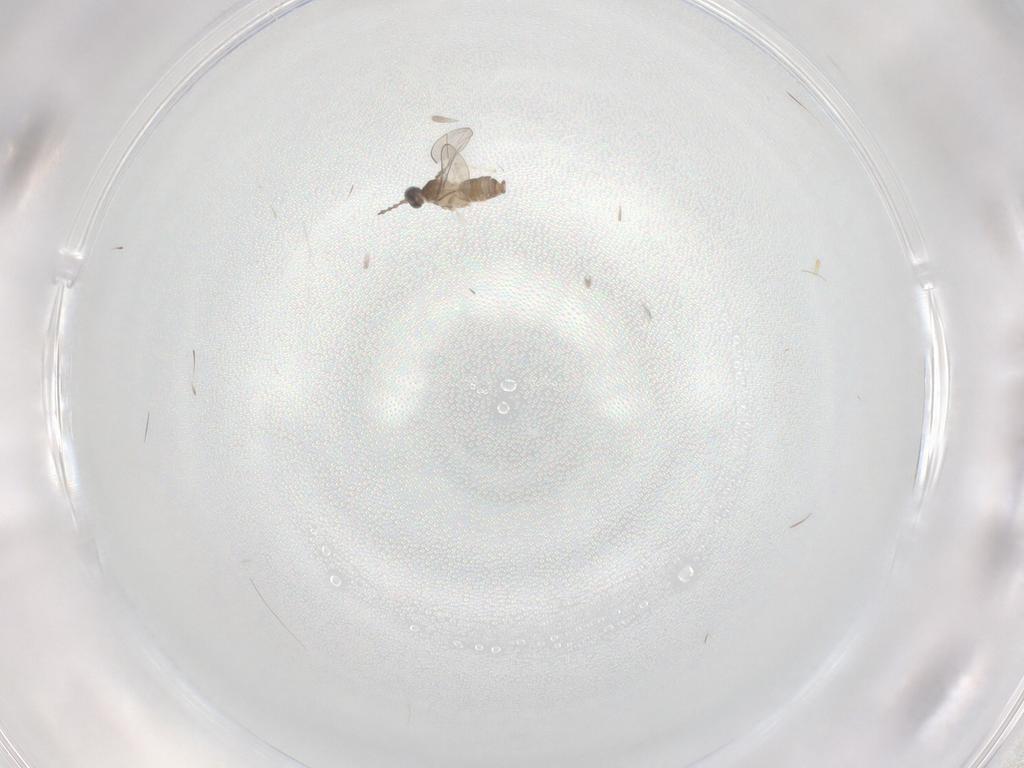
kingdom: Animalia
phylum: Arthropoda
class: Insecta
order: Diptera
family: Cecidomyiidae
